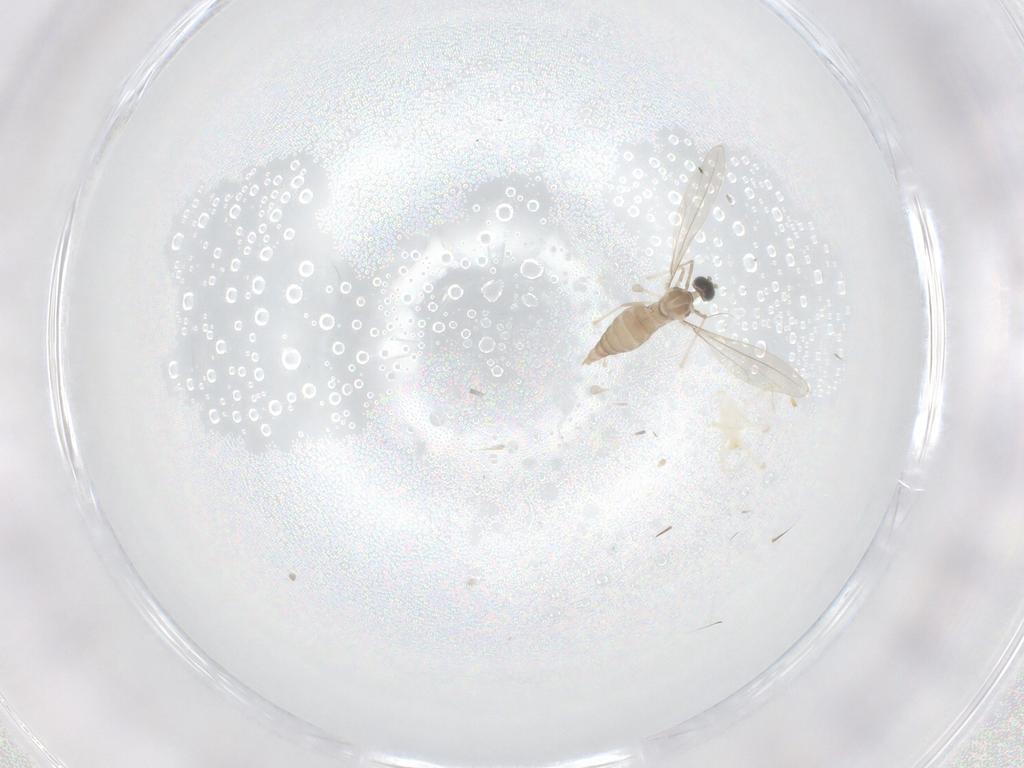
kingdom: Animalia
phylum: Arthropoda
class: Insecta
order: Diptera
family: Cecidomyiidae
